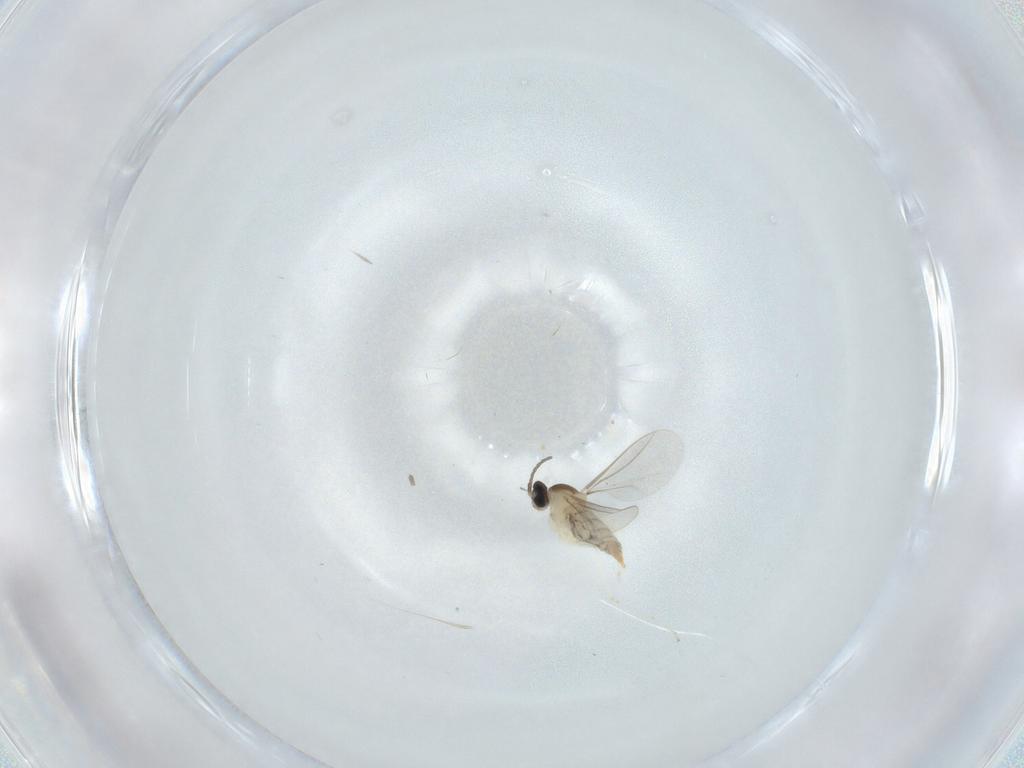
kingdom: Animalia
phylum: Arthropoda
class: Insecta
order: Diptera
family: Cecidomyiidae
